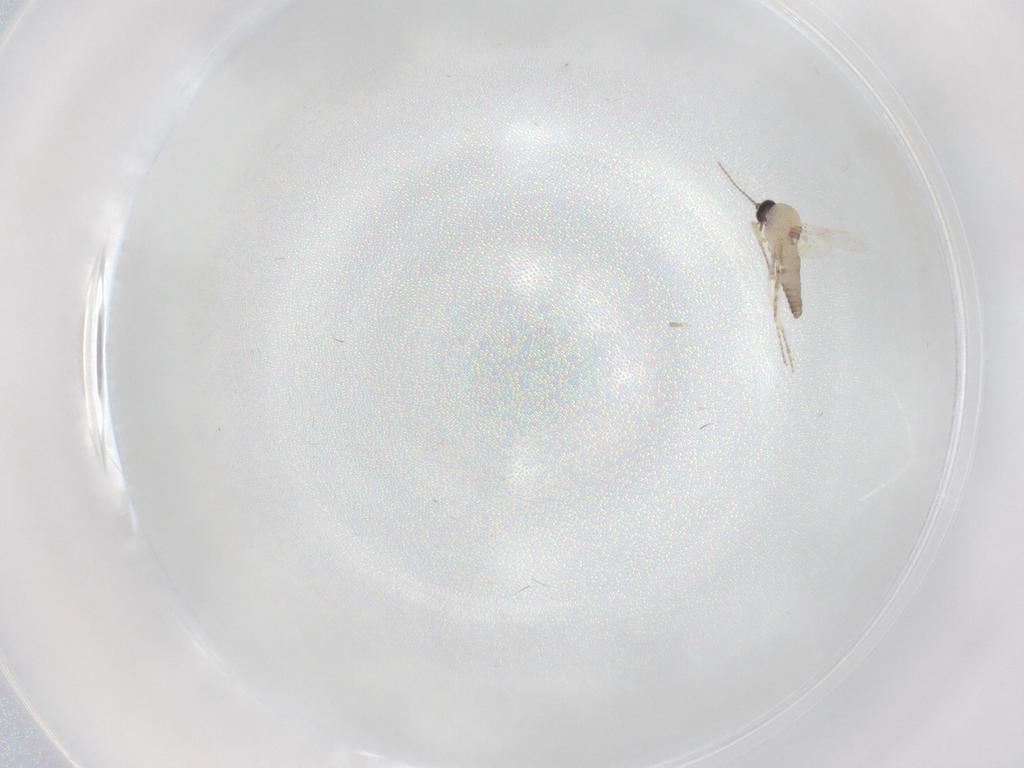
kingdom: Animalia
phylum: Arthropoda
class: Insecta
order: Diptera
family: Ceratopogonidae
